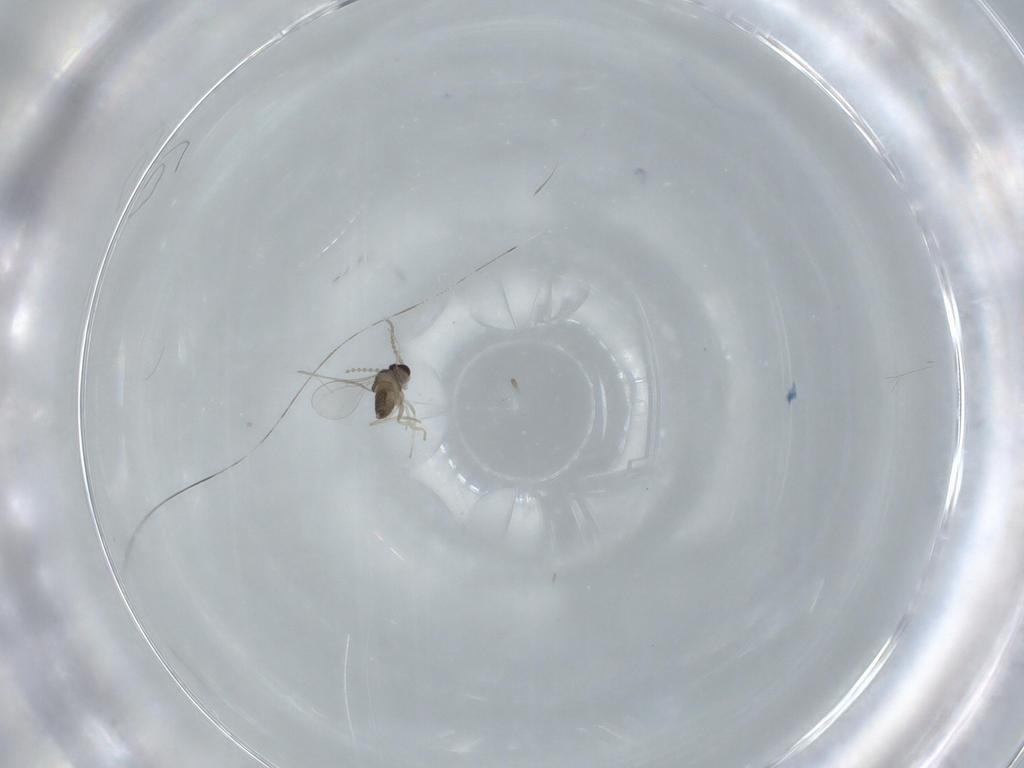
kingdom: Animalia
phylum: Arthropoda
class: Insecta
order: Diptera
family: Cecidomyiidae
